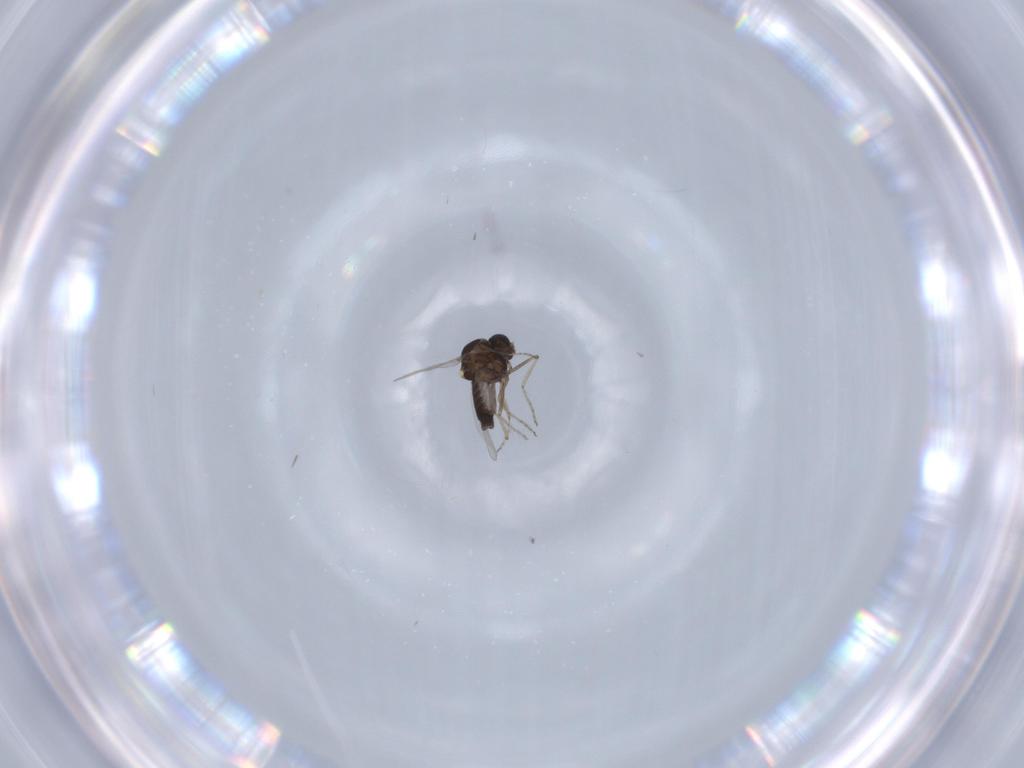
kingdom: Animalia
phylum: Arthropoda
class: Insecta
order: Diptera
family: Ceratopogonidae
